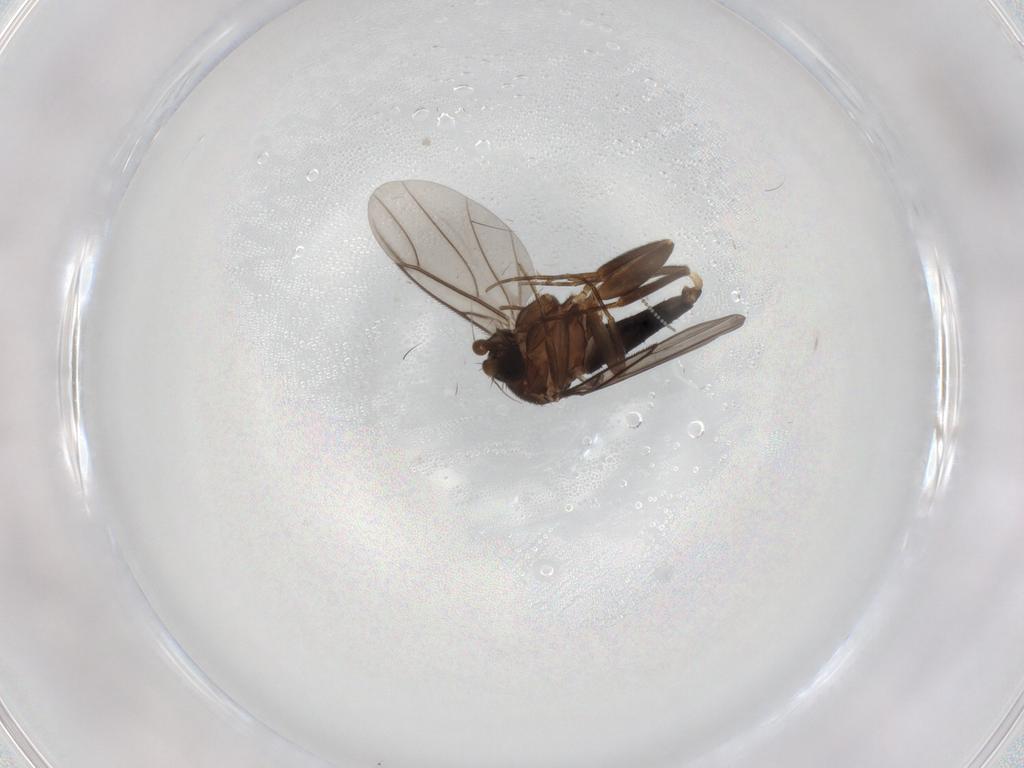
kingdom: Animalia
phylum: Arthropoda
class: Insecta
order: Diptera
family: Cecidomyiidae
